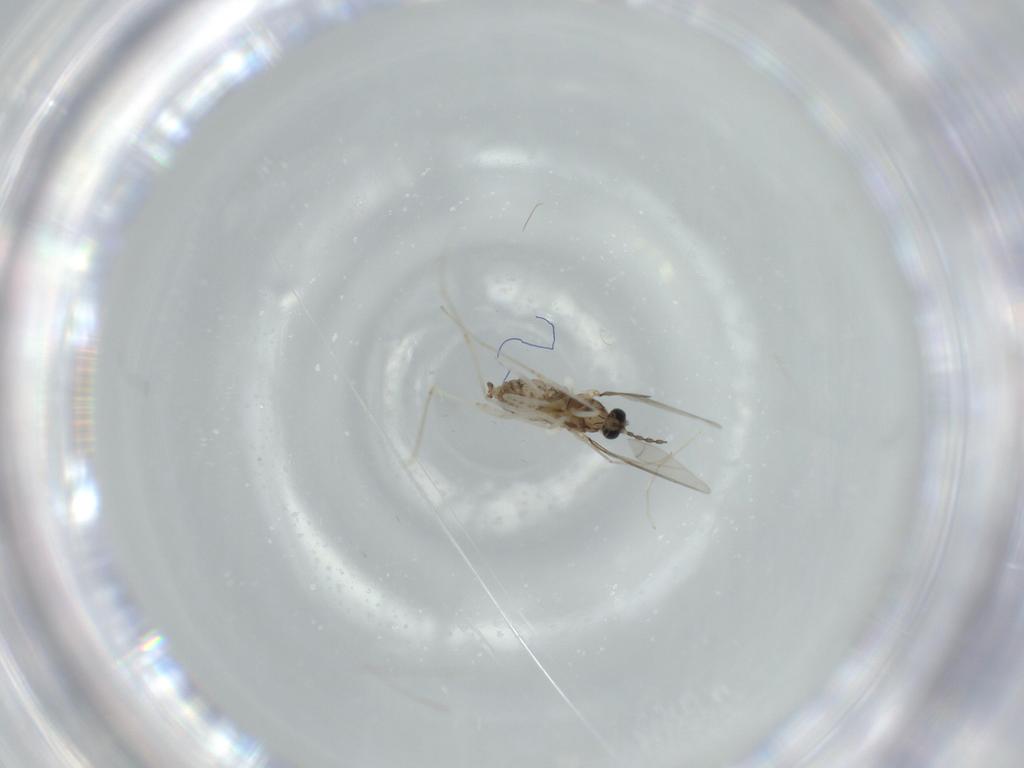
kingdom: Animalia
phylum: Arthropoda
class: Insecta
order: Diptera
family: Cecidomyiidae
